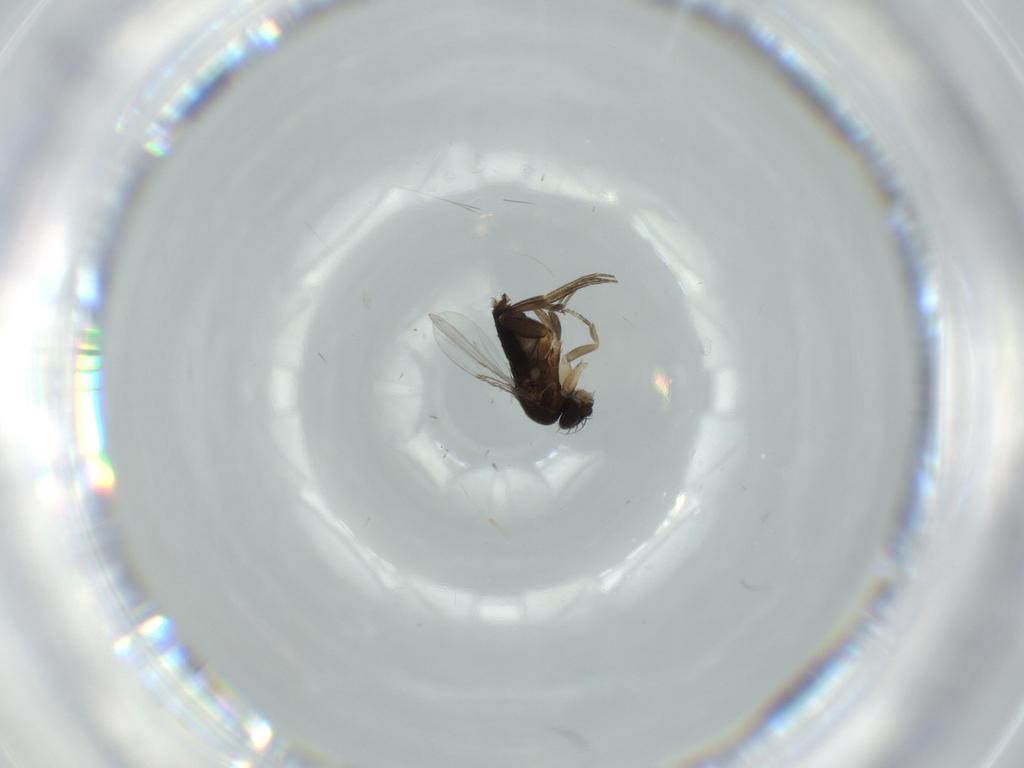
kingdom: Animalia
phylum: Arthropoda
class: Insecta
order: Diptera
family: Phoridae
